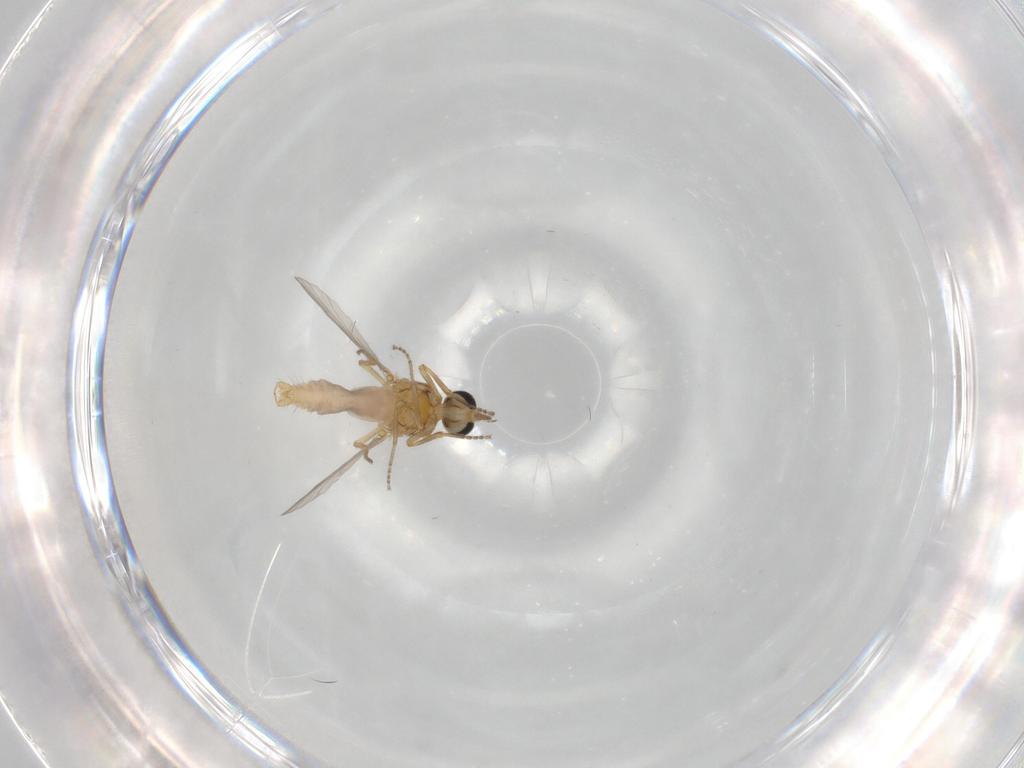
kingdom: Animalia
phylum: Arthropoda
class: Insecta
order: Diptera
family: Ceratopogonidae
